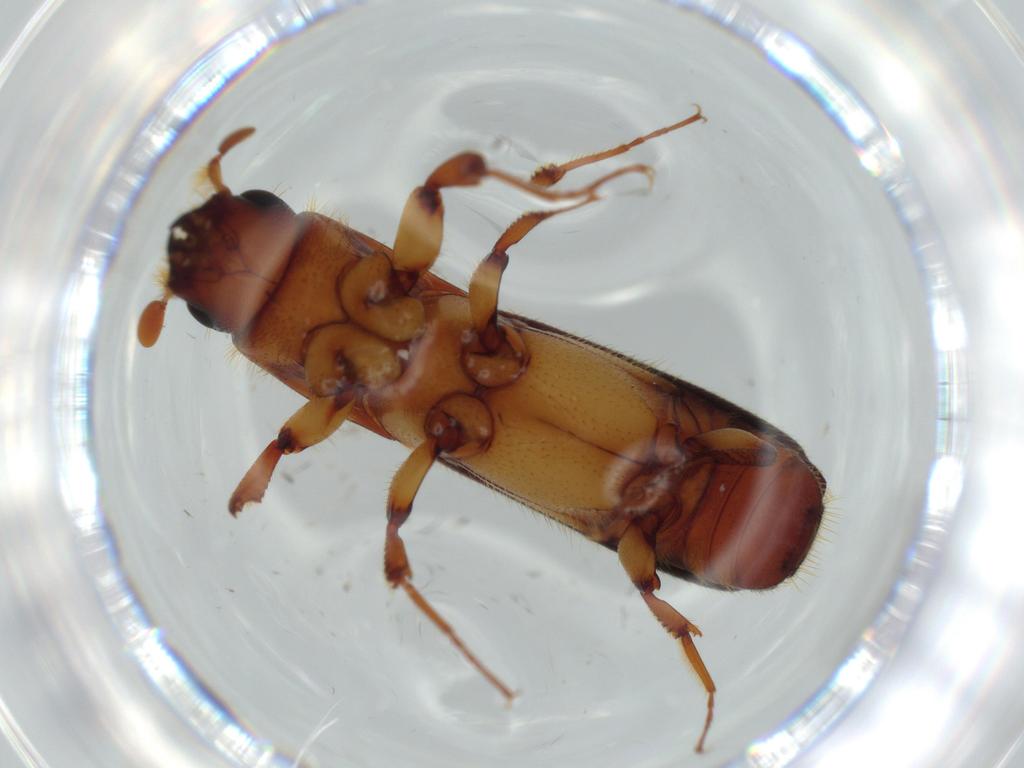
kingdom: Animalia
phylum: Arthropoda
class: Insecta
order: Coleoptera
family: Curculionidae
